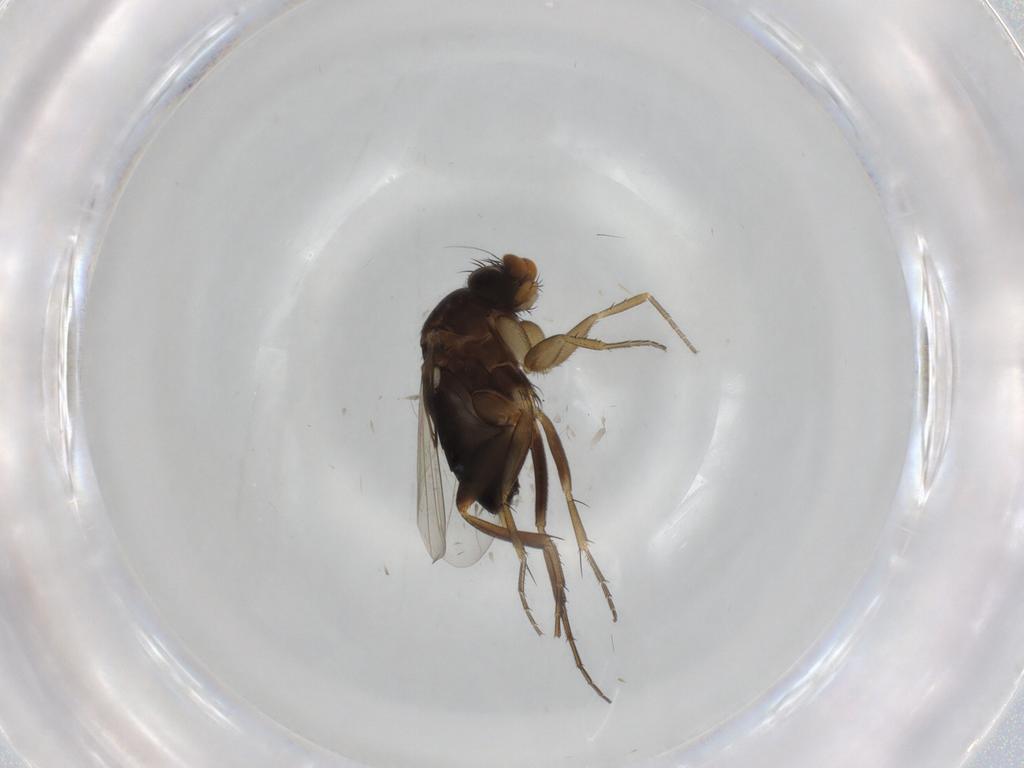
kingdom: Animalia
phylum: Arthropoda
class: Insecta
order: Diptera
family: Phoridae
